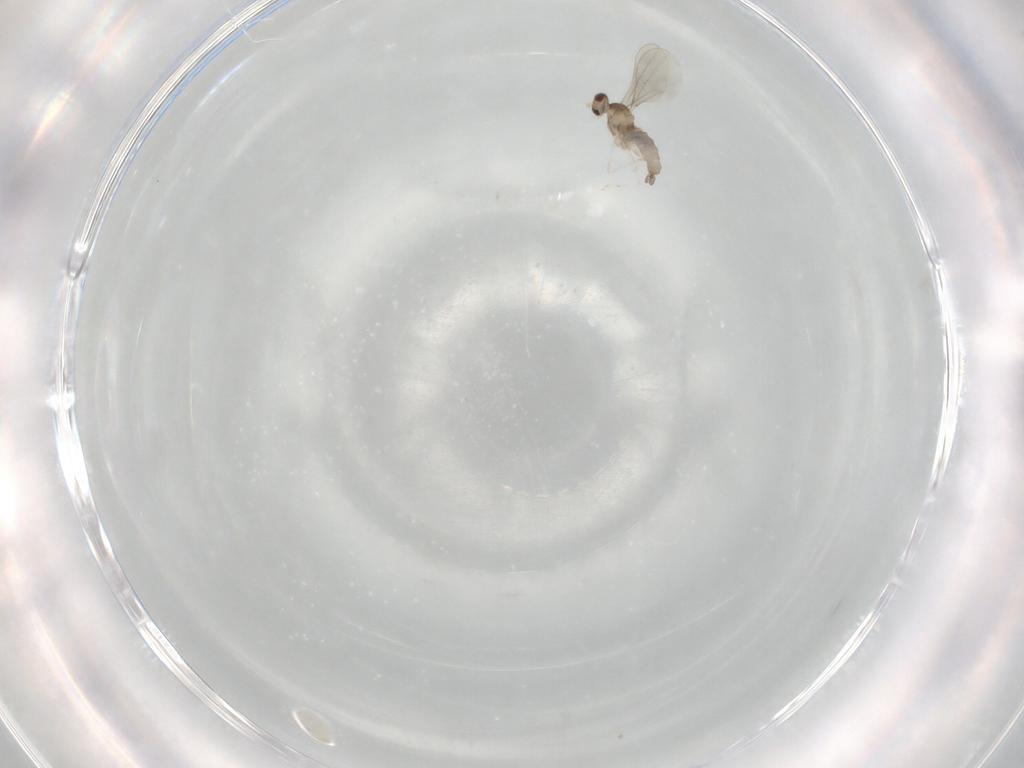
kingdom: Animalia
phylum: Arthropoda
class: Insecta
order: Diptera
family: Cecidomyiidae
